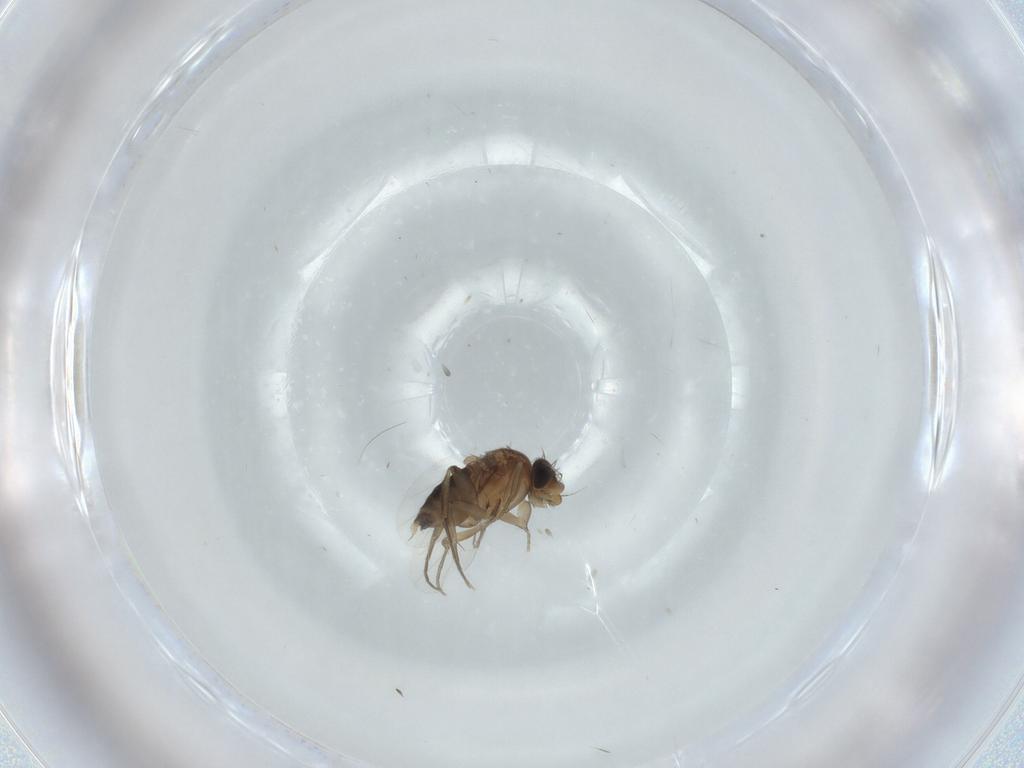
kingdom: Animalia
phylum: Arthropoda
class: Insecta
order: Diptera
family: Phoridae
